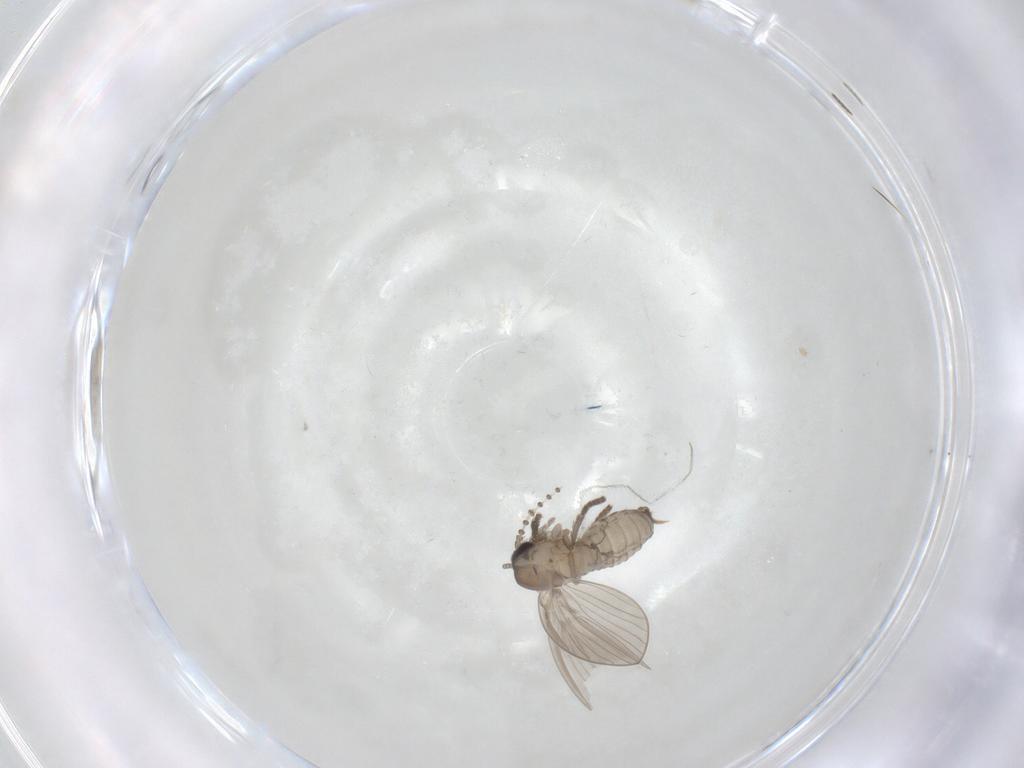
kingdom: Animalia
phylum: Arthropoda
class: Insecta
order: Diptera
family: Psychodidae
